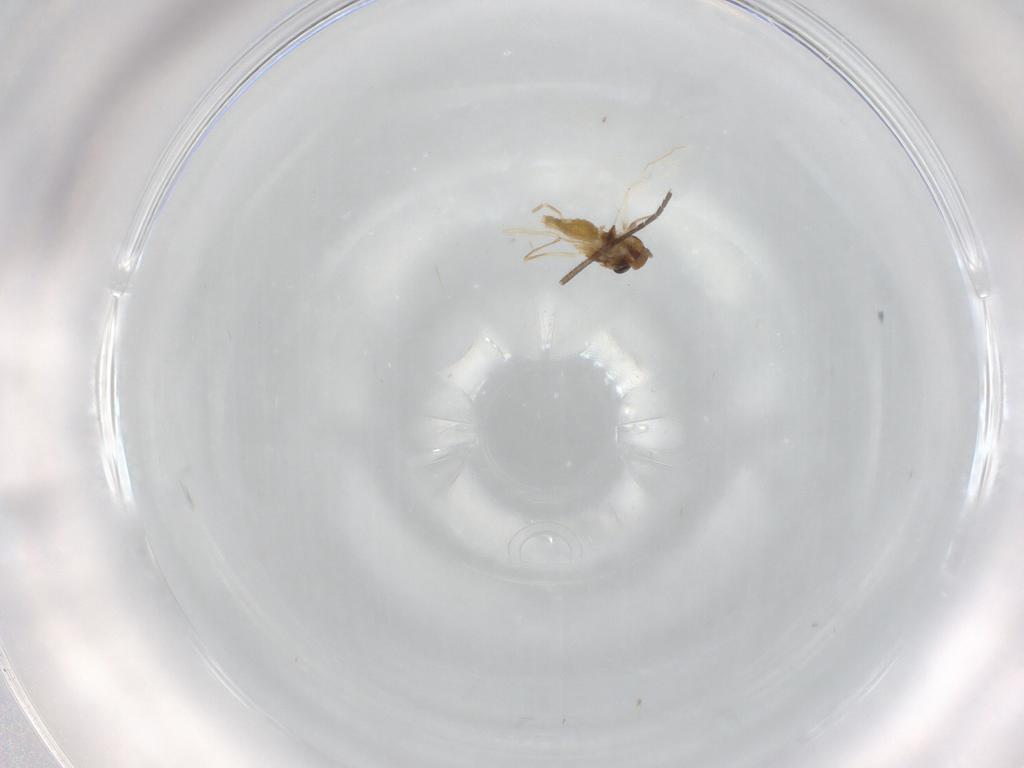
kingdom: Animalia
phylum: Arthropoda
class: Insecta
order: Diptera
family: Chironomidae
